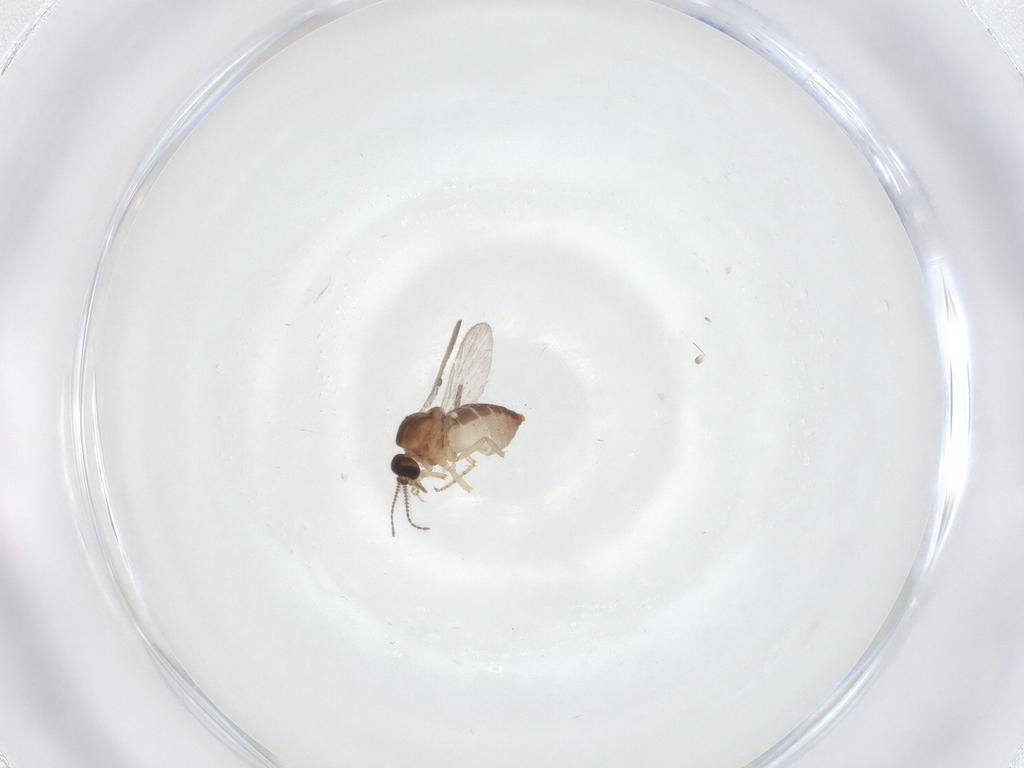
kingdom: Animalia
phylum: Arthropoda
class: Insecta
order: Diptera
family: Ceratopogonidae
